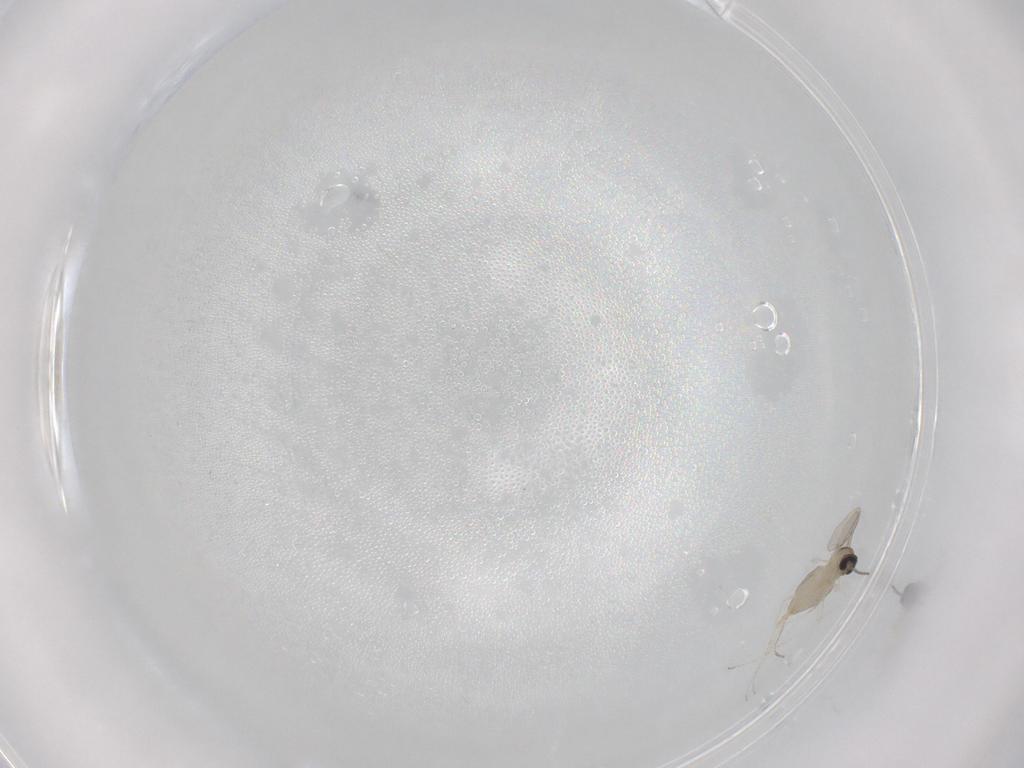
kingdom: Animalia
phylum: Arthropoda
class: Insecta
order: Diptera
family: Cecidomyiidae
